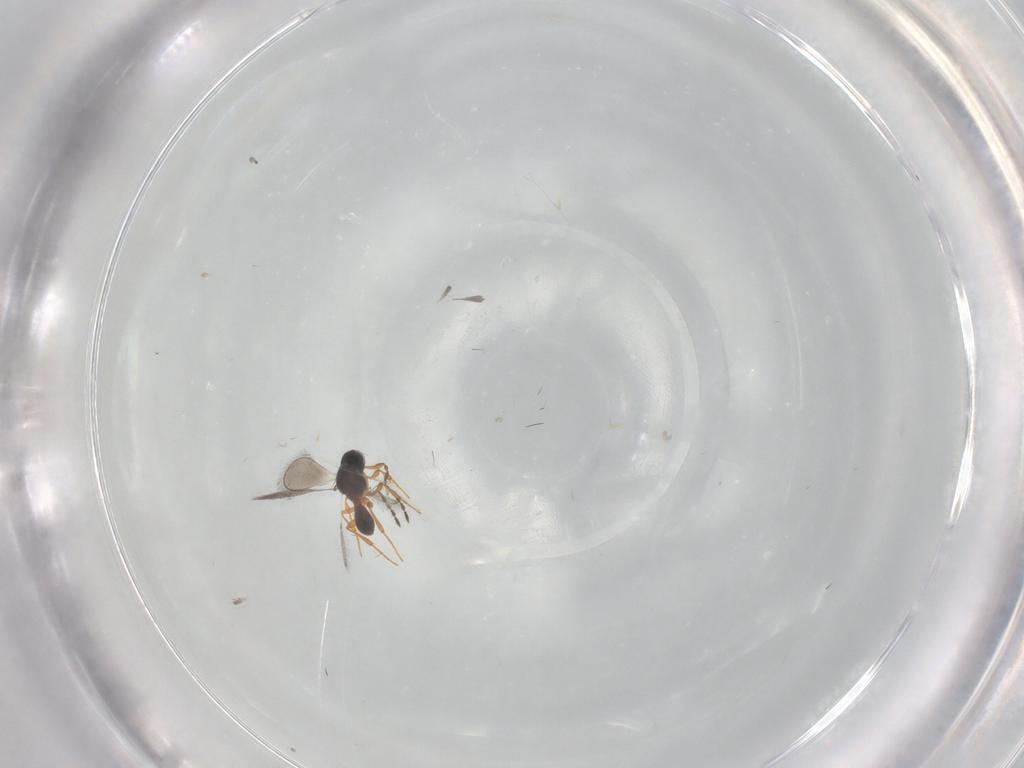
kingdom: Animalia
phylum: Arthropoda
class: Insecta
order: Hymenoptera
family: Platygastridae
